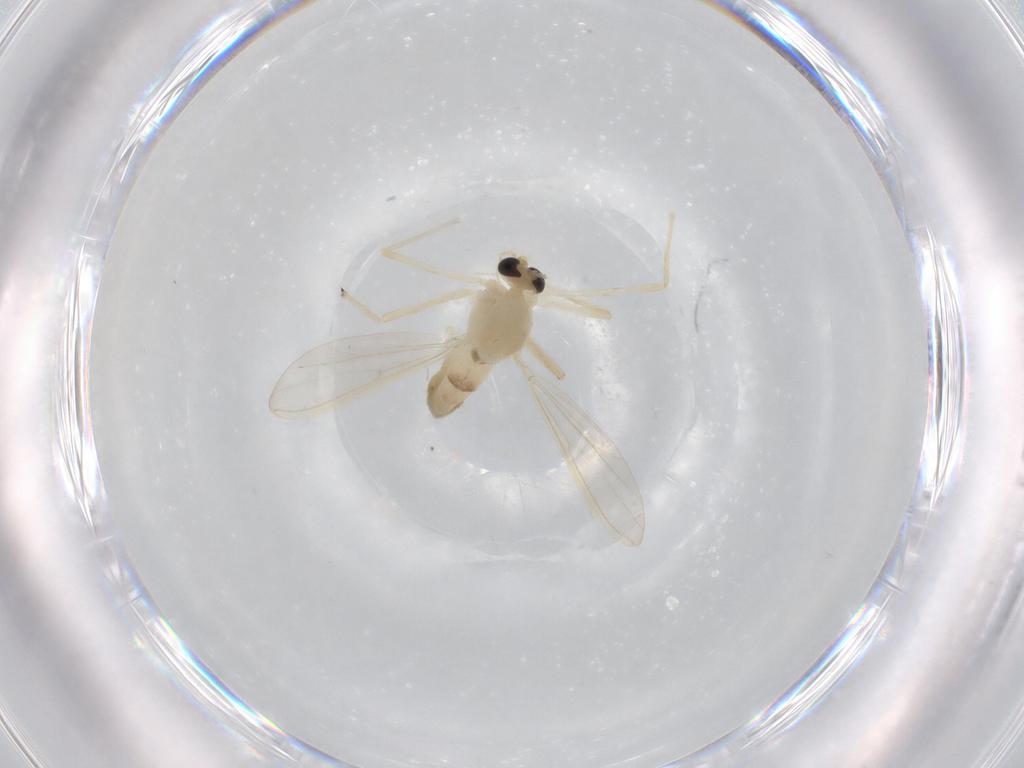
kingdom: Animalia
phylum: Arthropoda
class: Insecta
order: Diptera
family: Chironomidae
